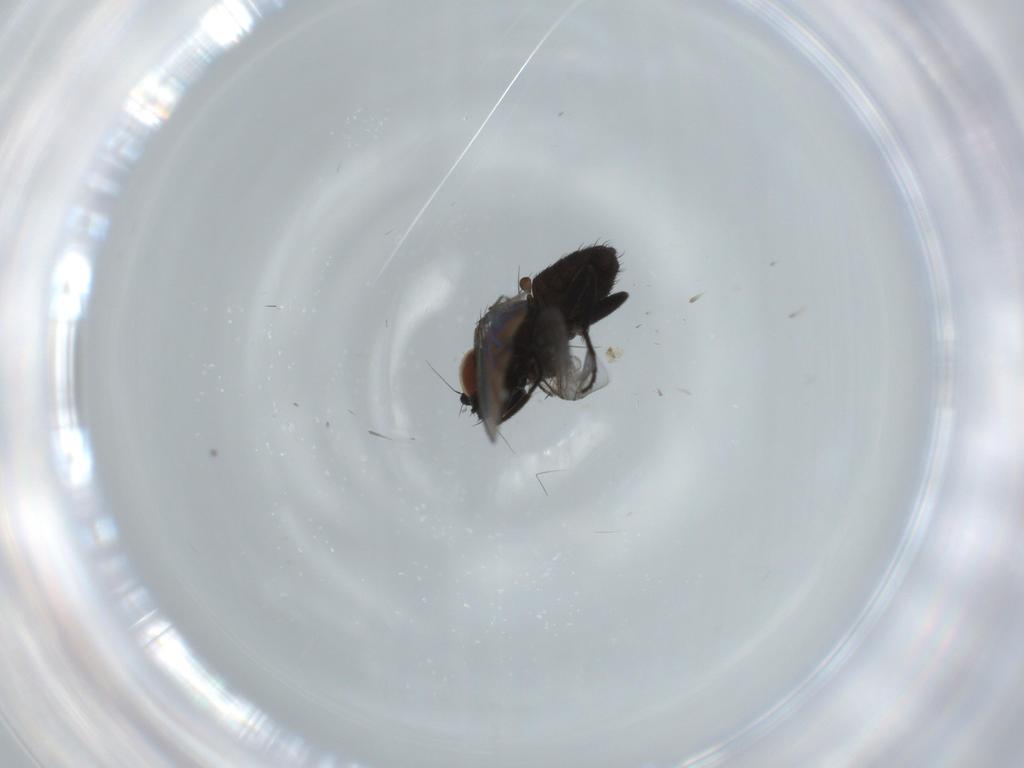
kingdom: Animalia
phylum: Arthropoda
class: Insecta
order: Diptera
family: Milichiidae
